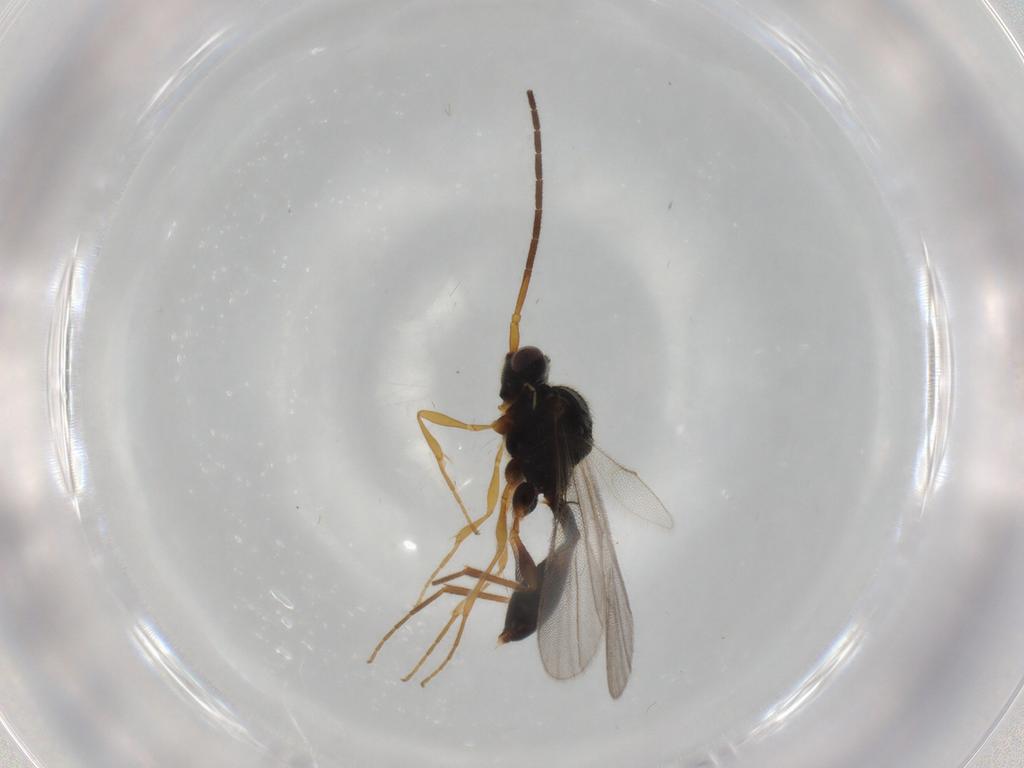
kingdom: Animalia
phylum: Arthropoda
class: Insecta
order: Hymenoptera
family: Diapriidae
